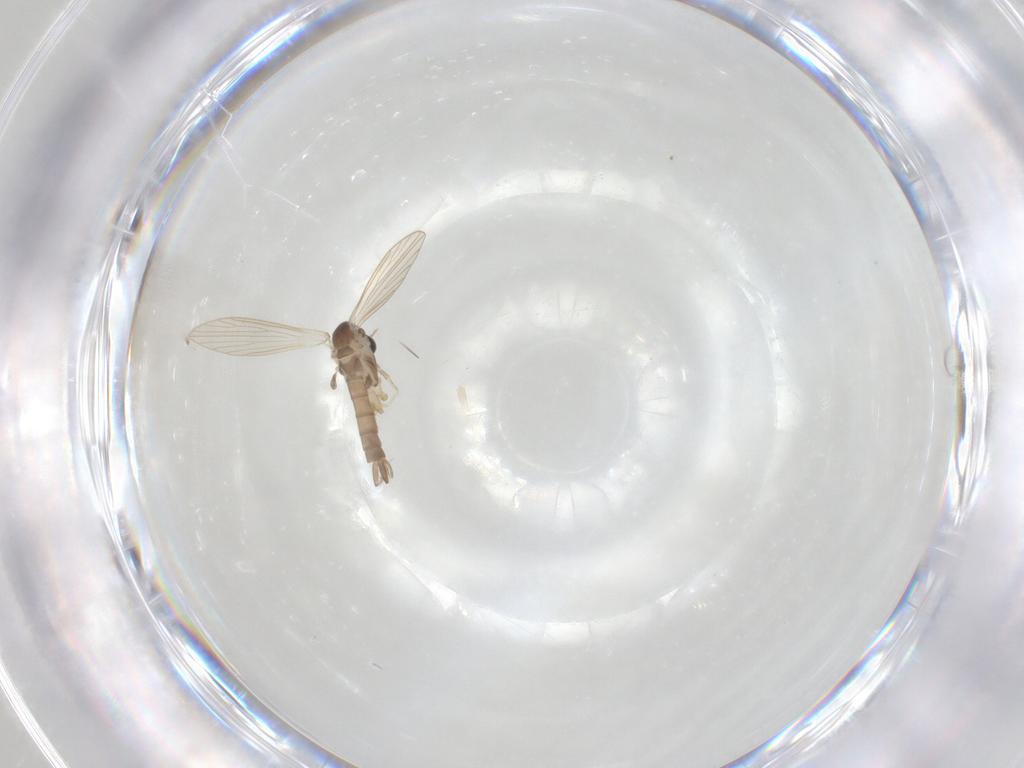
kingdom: Animalia
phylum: Arthropoda
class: Insecta
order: Diptera
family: Psychodidae
